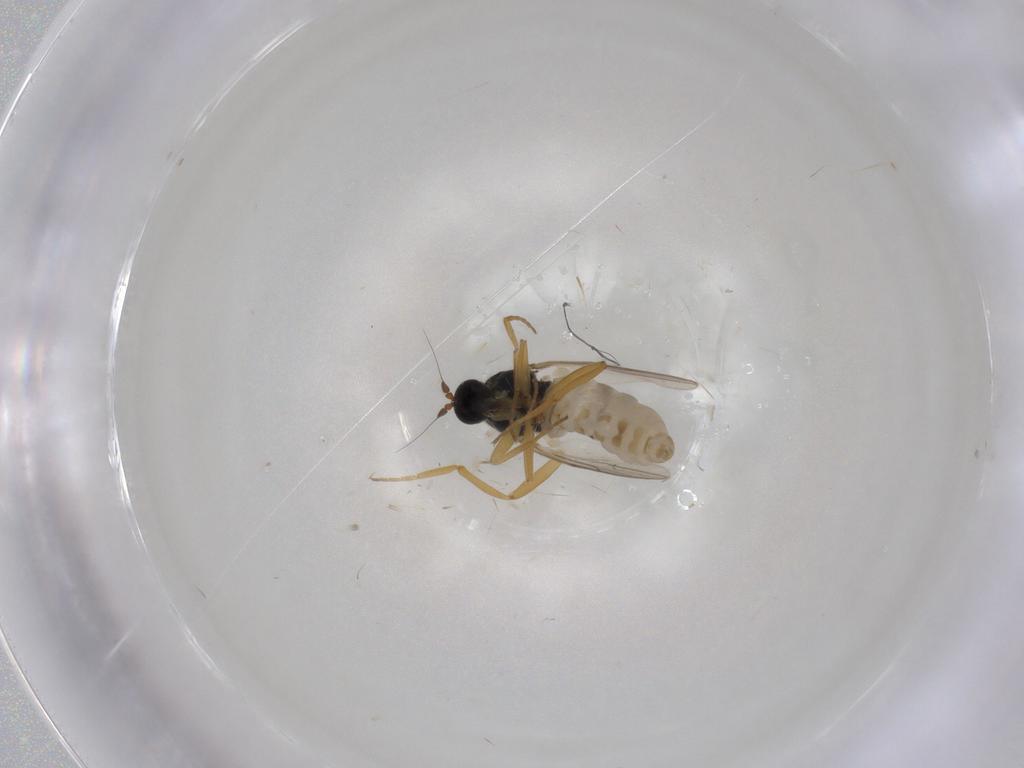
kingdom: Animalia
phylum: Arthropoda
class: Insecta
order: Diptera
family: Hybotidae
